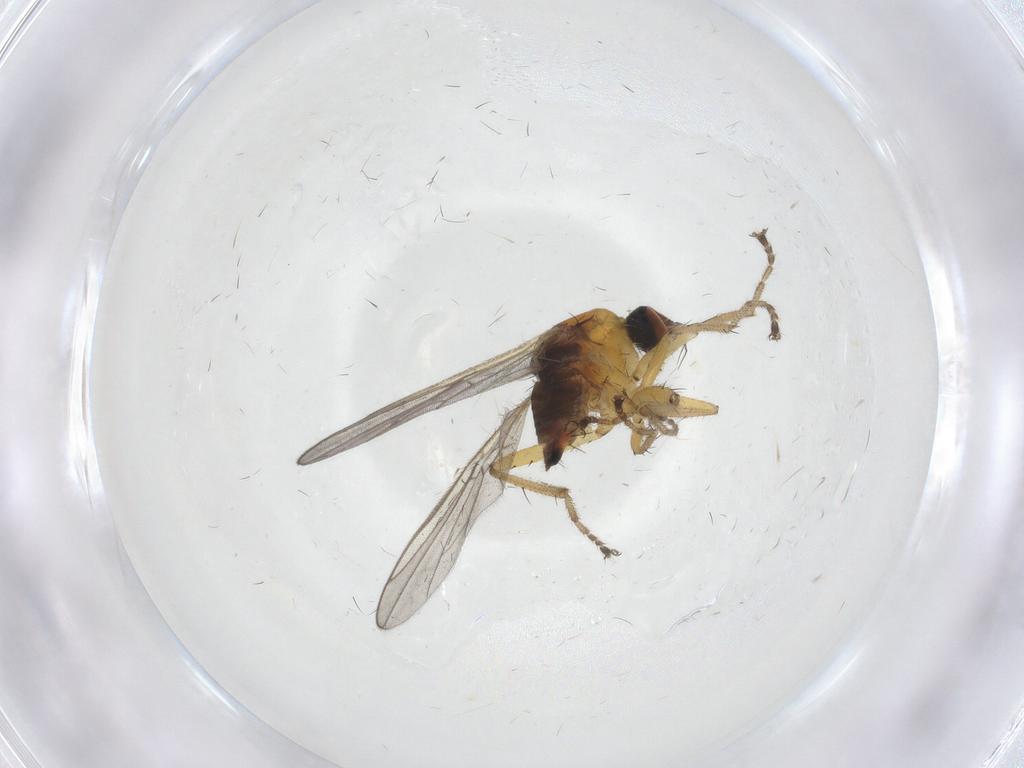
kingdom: Animalia
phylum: Arthropoda
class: Insecta
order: Diptera
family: Hybotidae
